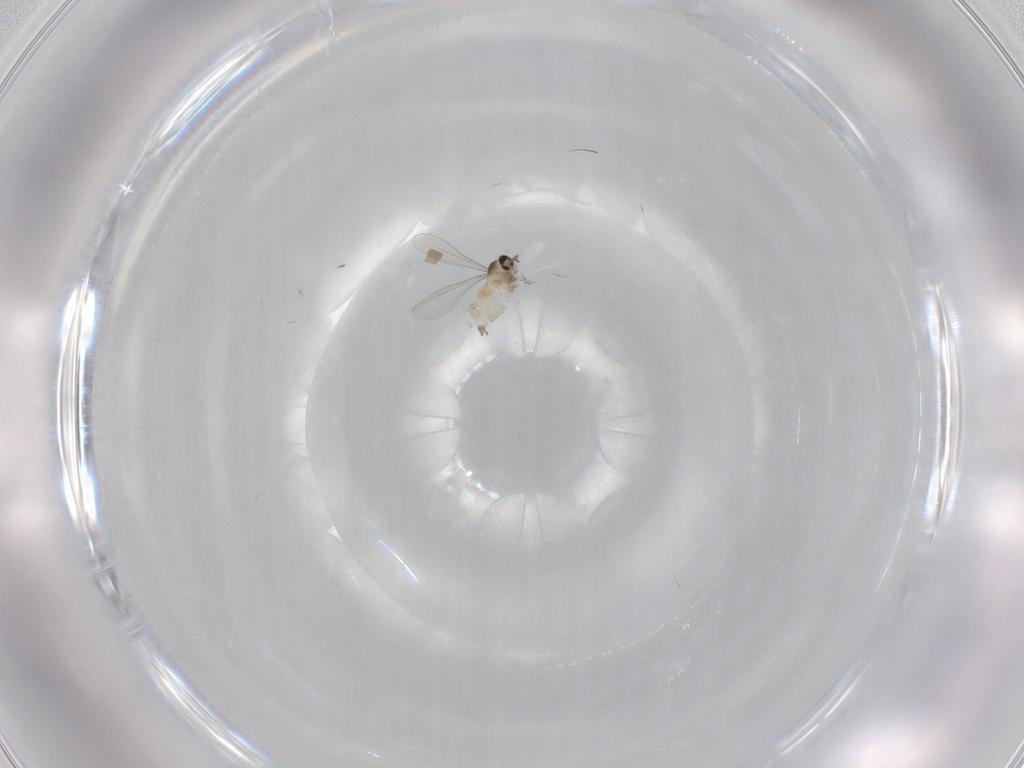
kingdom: Animalia
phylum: Arthropoda
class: Insecta
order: Diptera
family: Cecidomyiidae
